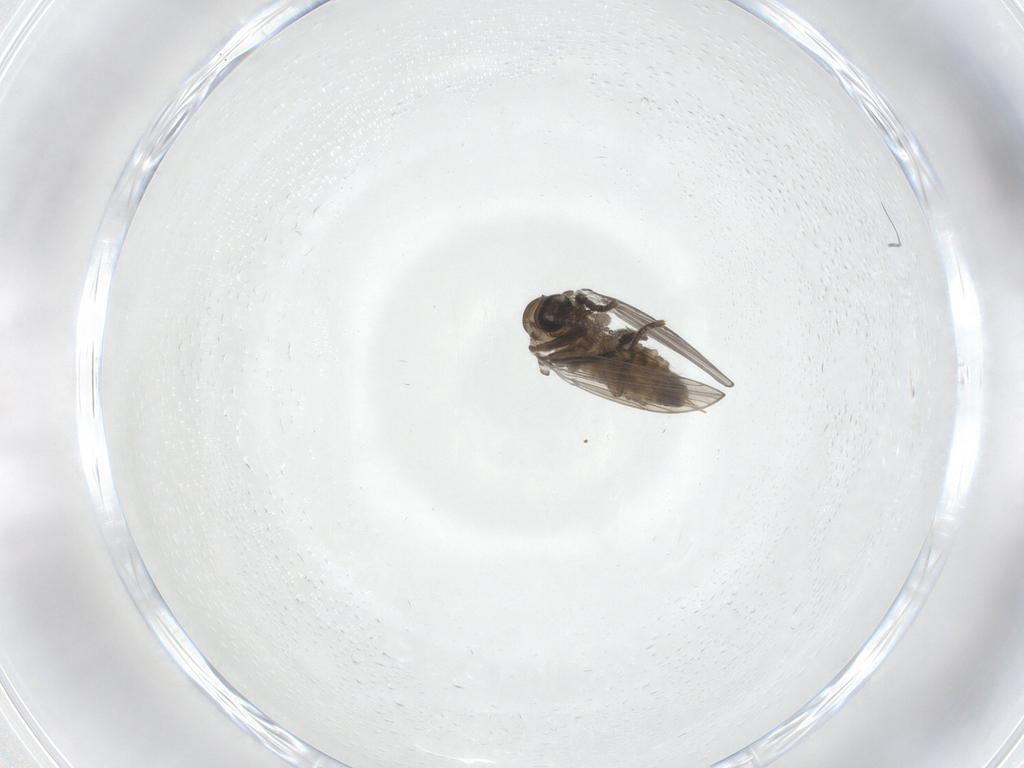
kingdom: Animalia
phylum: Arthropoda
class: Insecta
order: Diptera
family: Psychodidae
